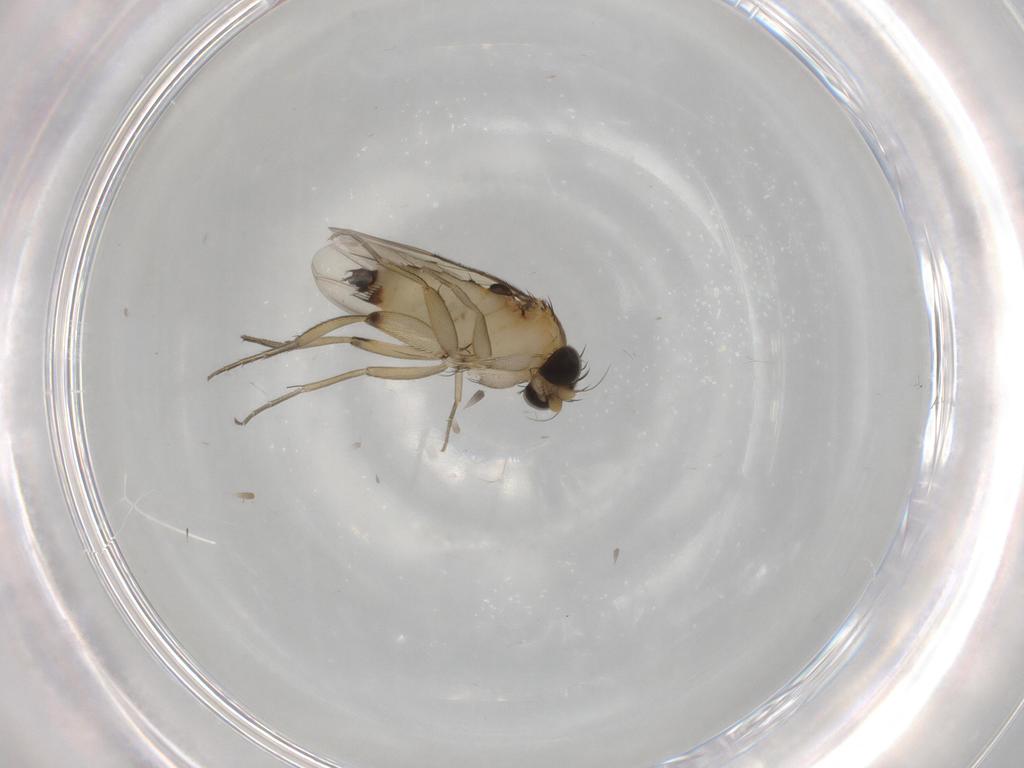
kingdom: Animalia
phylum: Arthropoda
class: Insecta
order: Diptera
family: Phoridae
